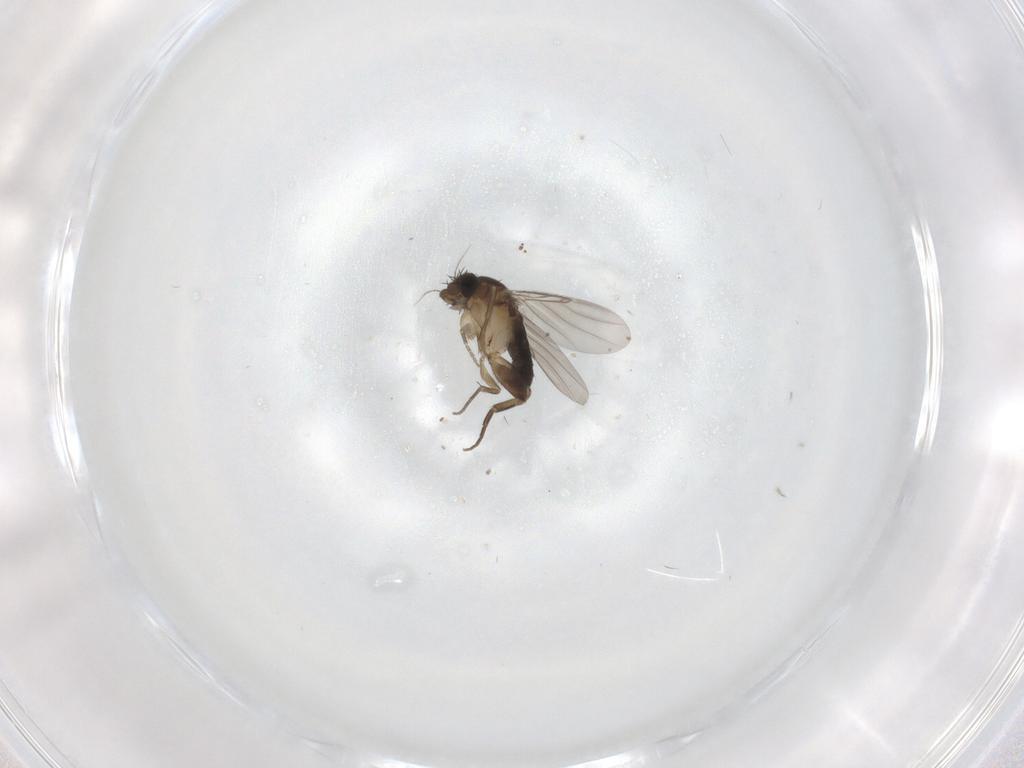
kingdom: Animalia
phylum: Arthropoda
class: Insecta
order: Diptera
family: Phoridae
